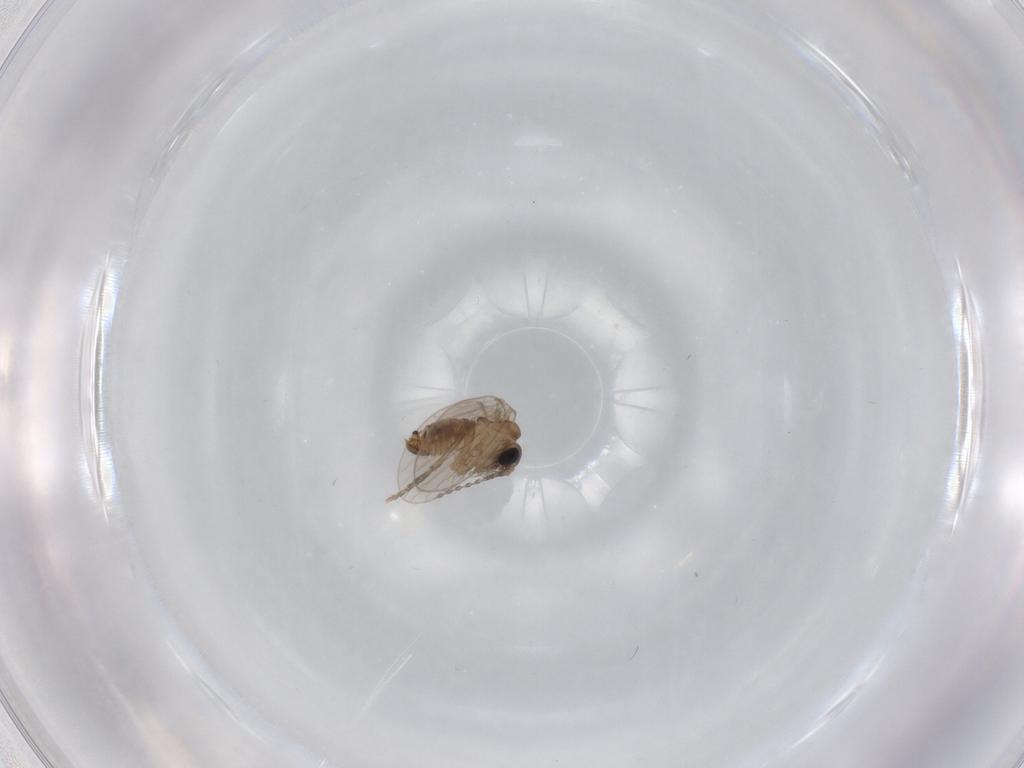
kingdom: Animalia
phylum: Arthropoda
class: Insecta
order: Diptera
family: Psychodidae
